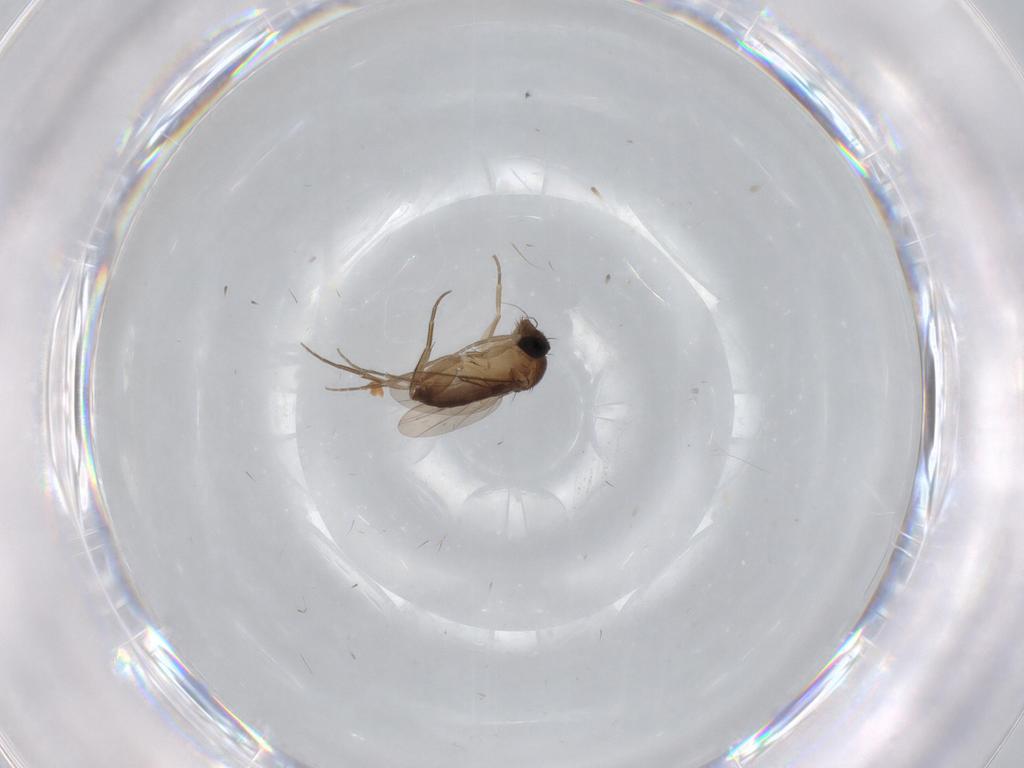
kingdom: Animalia
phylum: Arthropoda
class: Insecta
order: Diptera
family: Phoridae
